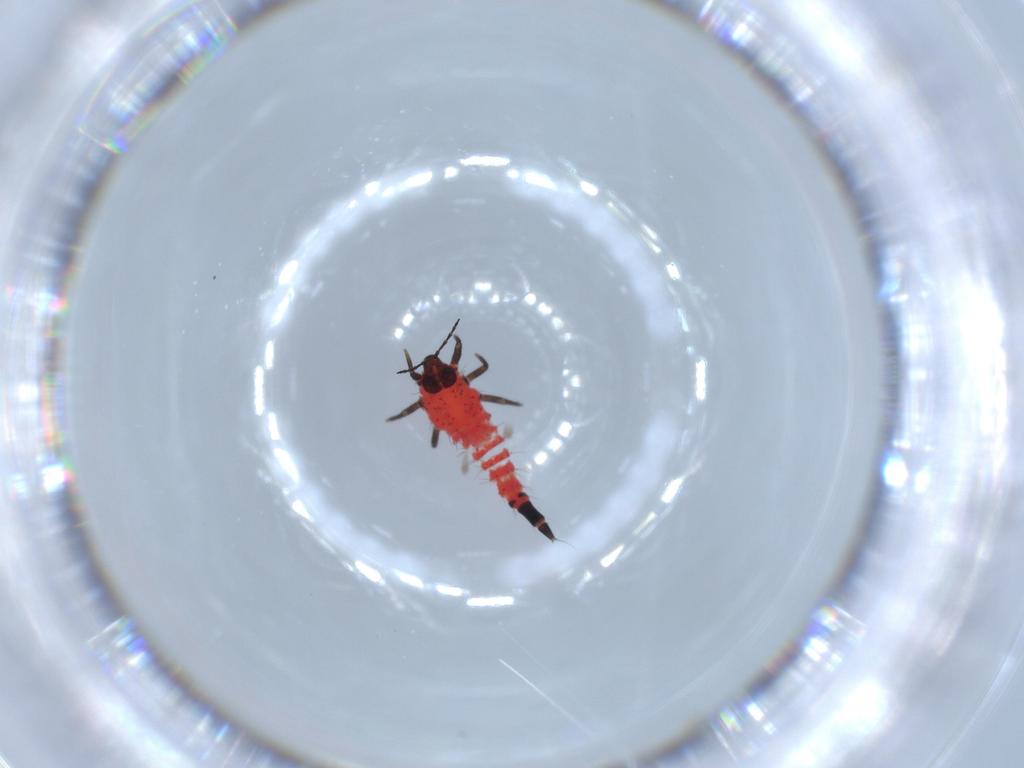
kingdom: Animalia
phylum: Arthropoda
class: Insecta
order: Thysanoptera
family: Phlaeothripidae
